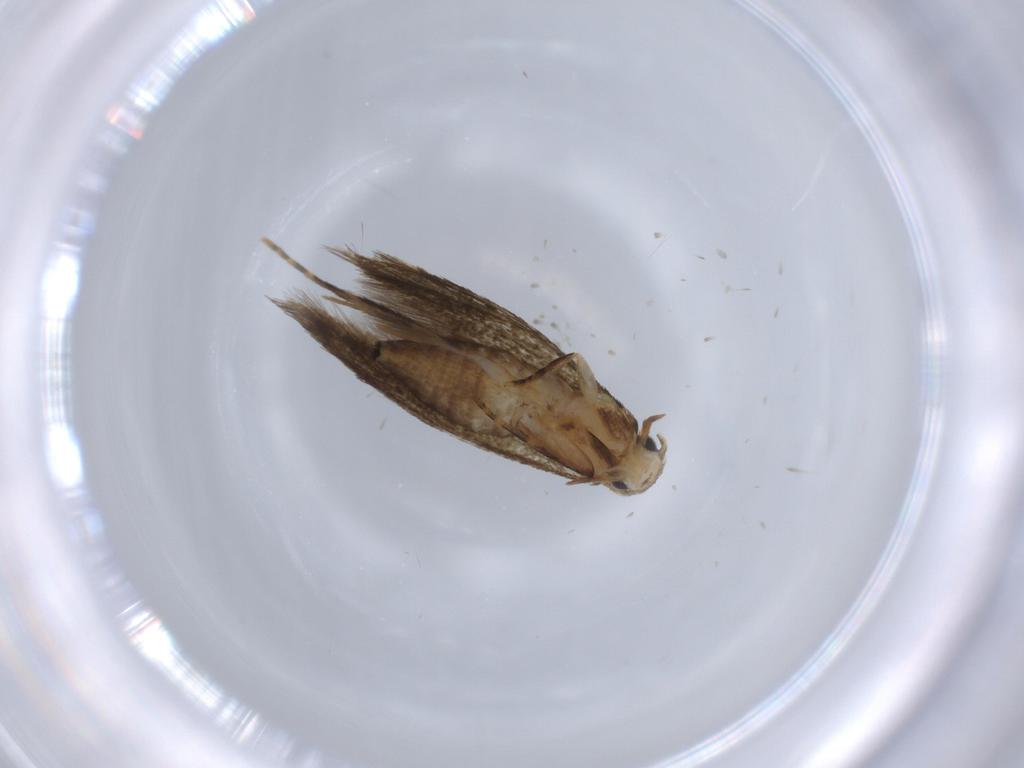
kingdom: Animalia
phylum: Arthropoda
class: Insecta
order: Lepidoptera
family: Tineidae
